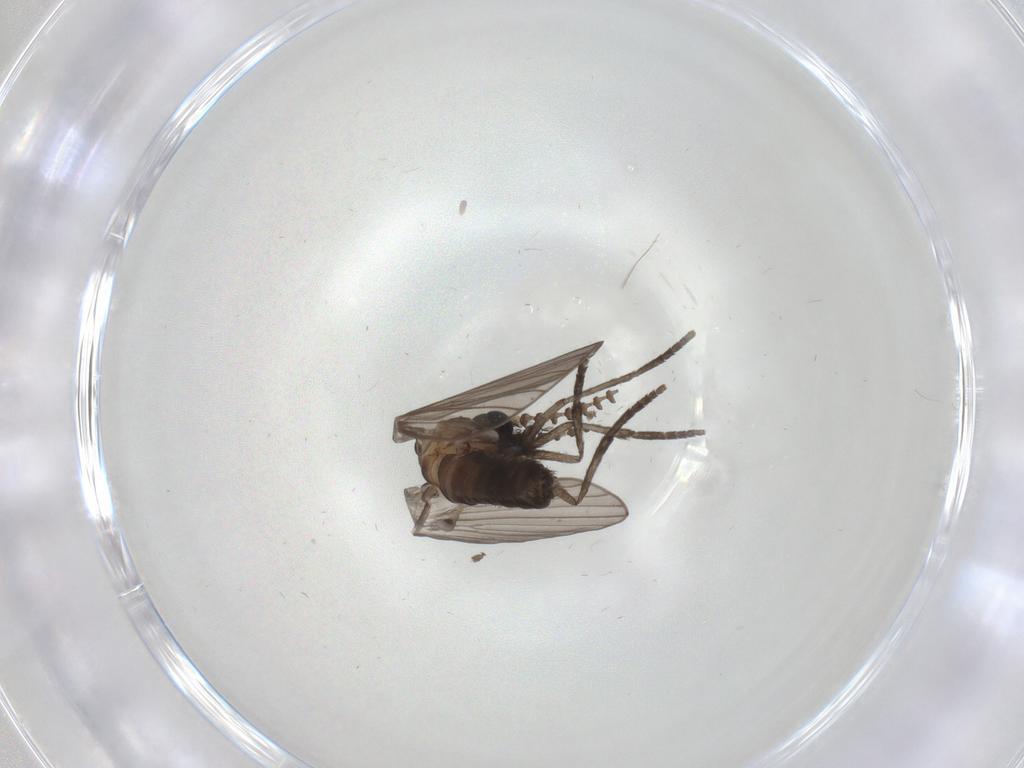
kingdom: Animalia
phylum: Arthropoda
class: Insecta
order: Diptera
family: Psychodidae
